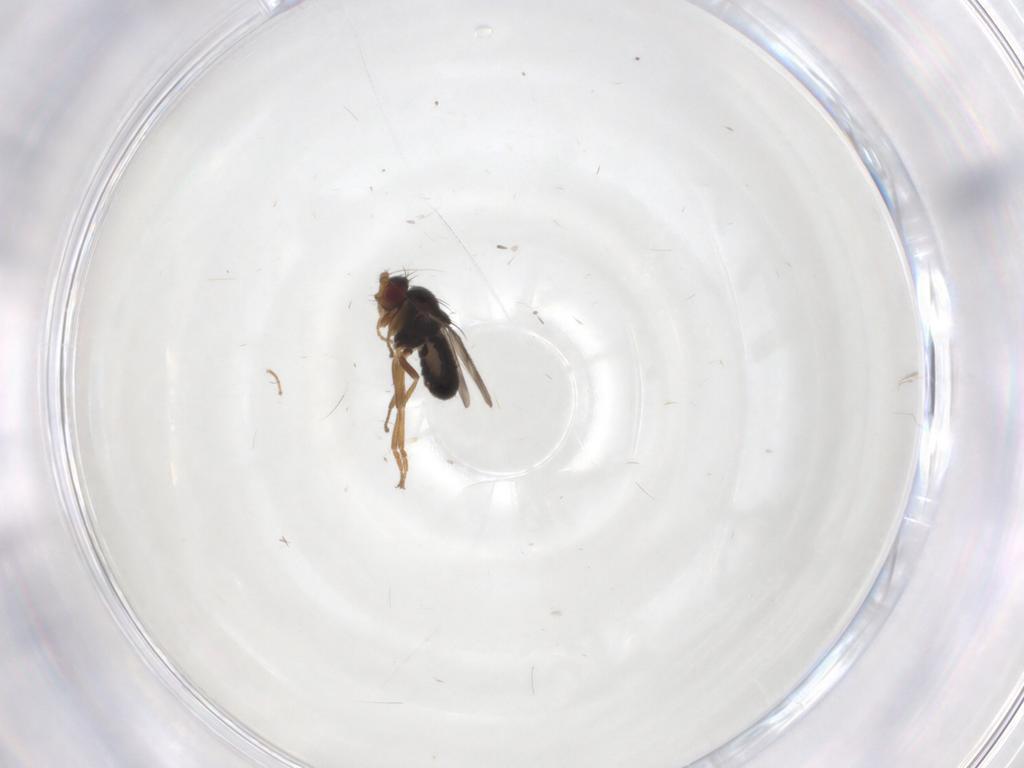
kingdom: Animalia
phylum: Arthropoda
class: Insecta
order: Diptera
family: Sphaeroceridae
